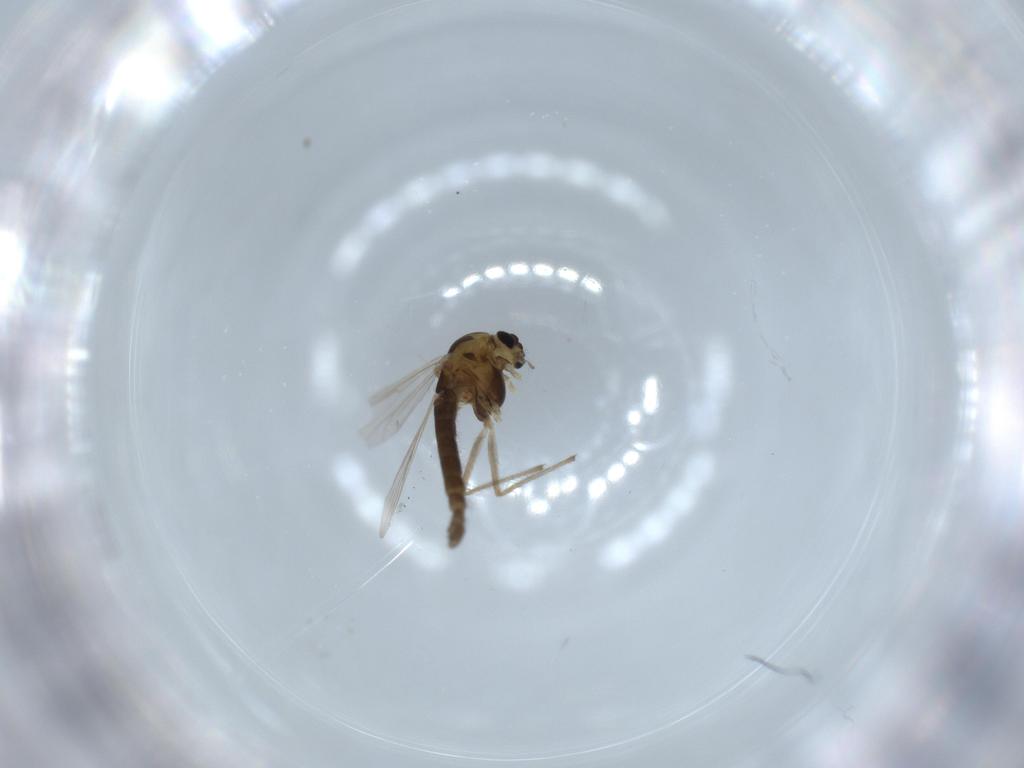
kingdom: Animalia
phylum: Arthropoda
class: Insecta
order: Diptera
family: Chironomidae
